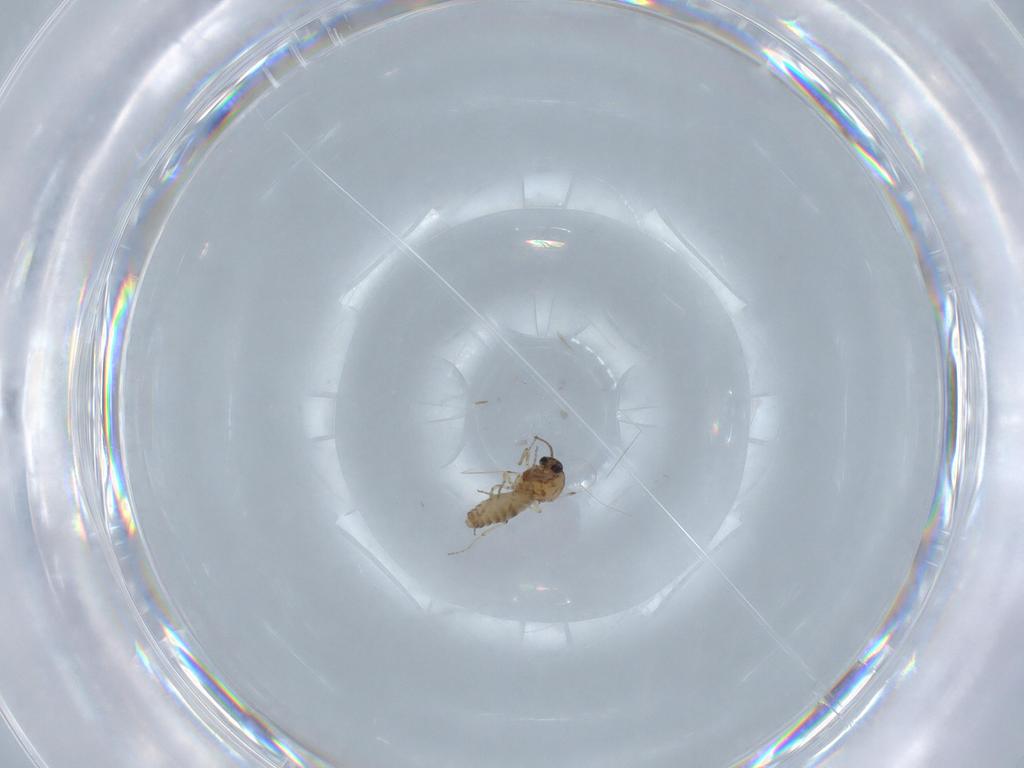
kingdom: Animalia
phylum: Arthropoda
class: Insecta
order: Diptera
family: Ceratopogonidae
